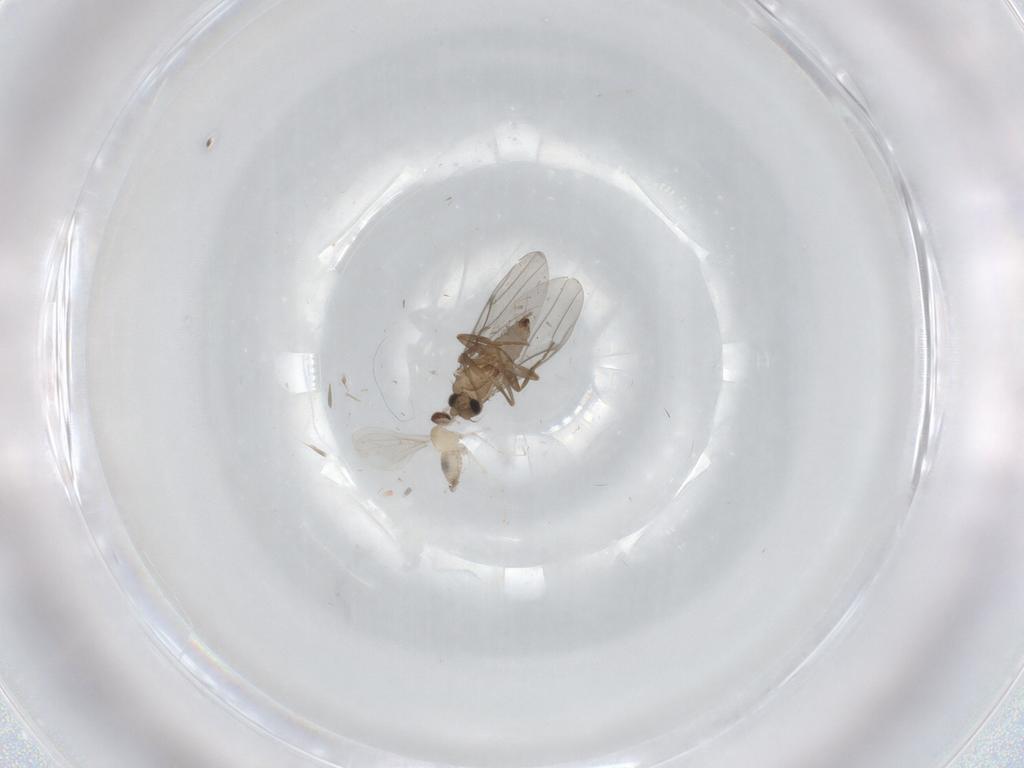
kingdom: Animalia
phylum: Arthropoda
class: Insecta
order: Diptera
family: Cecidomyiidae
